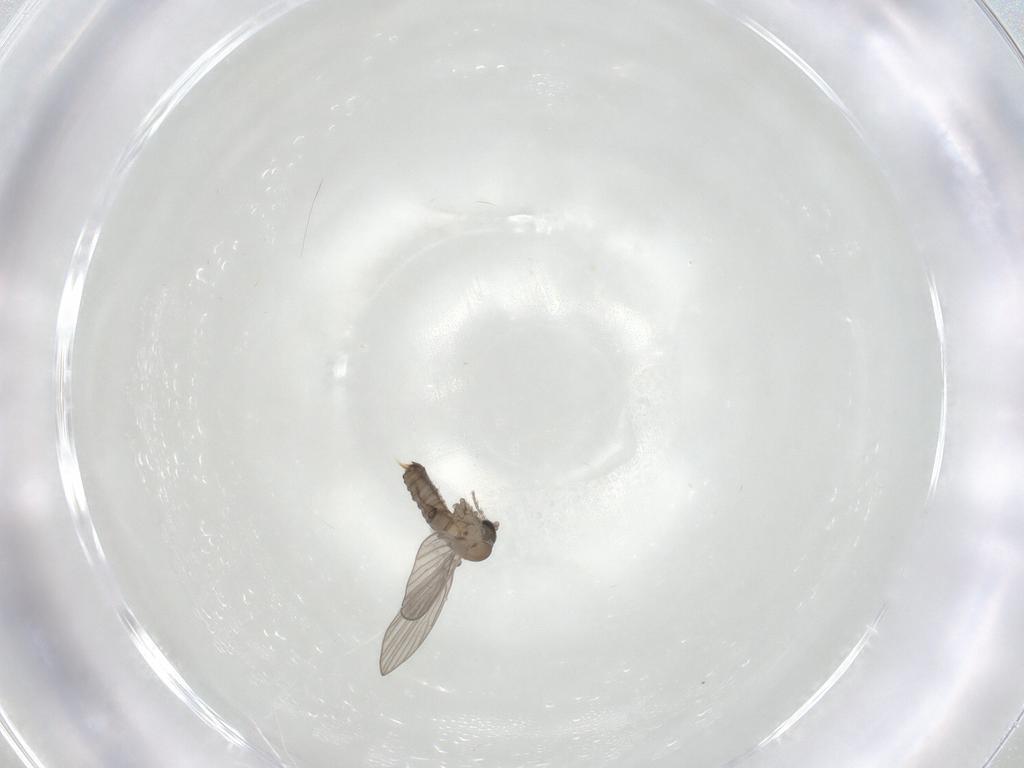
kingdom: Animalia
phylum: Arthropoda
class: Insecta
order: Diptera
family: Psychodidae
